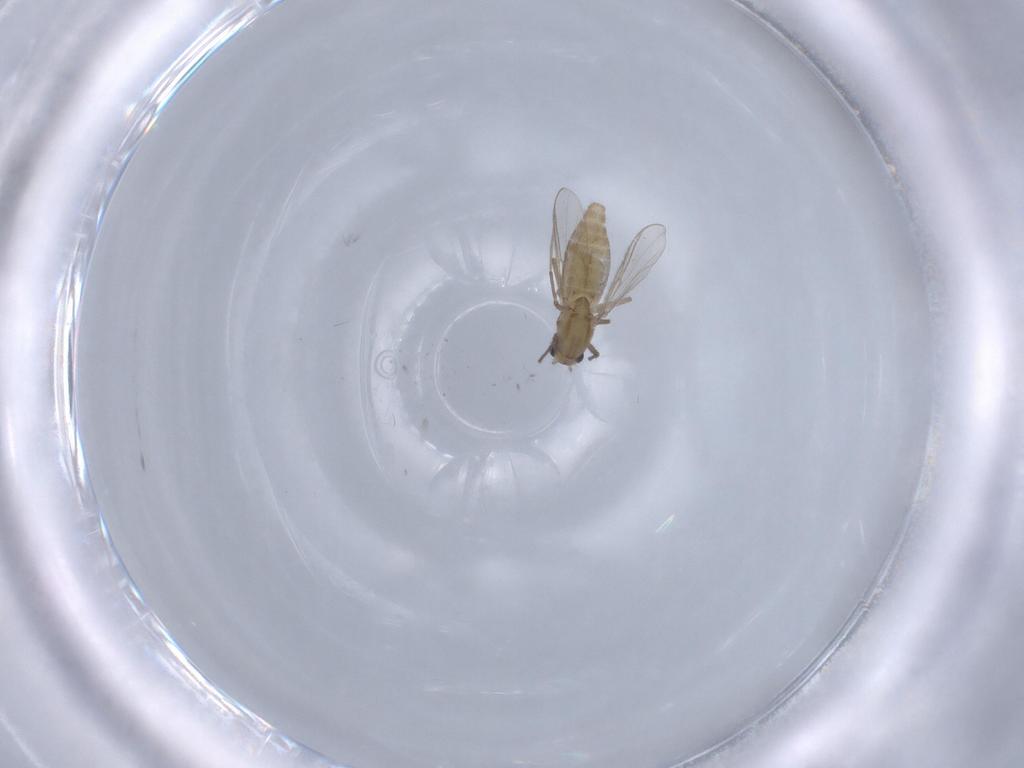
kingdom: Animalia
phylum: Arthropoda
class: Insecta
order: Diptera
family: Chironomidae
